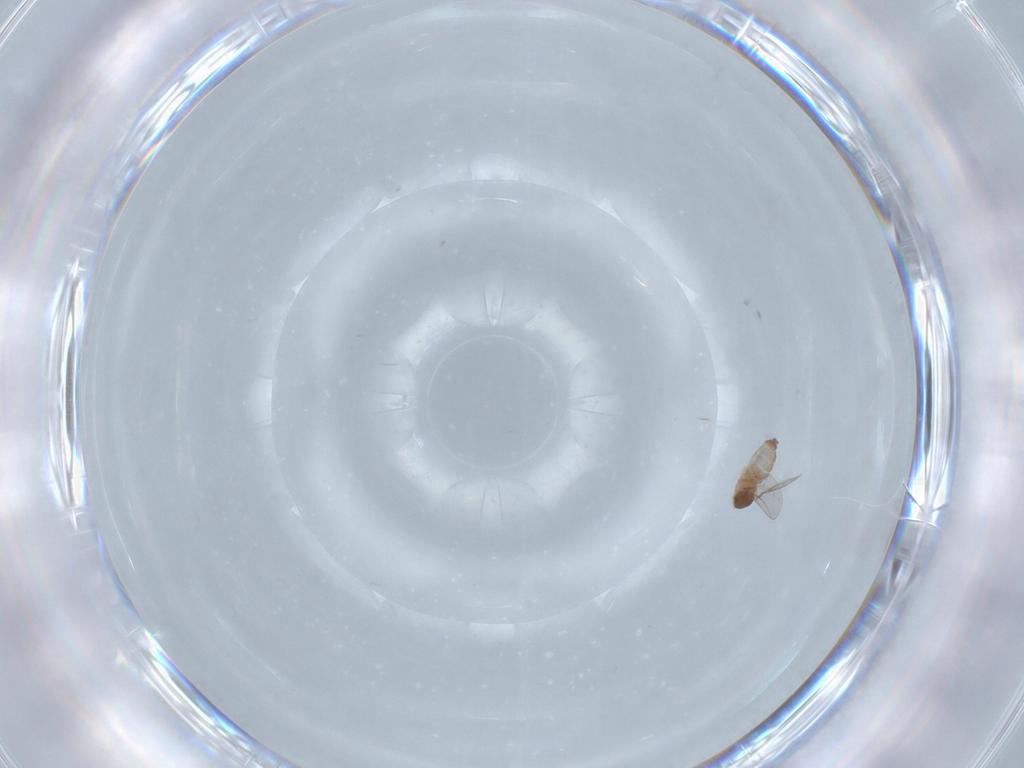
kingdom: Animalia
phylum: Arthropoda
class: Insecta
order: Diptera
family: Cecidomyiidae
